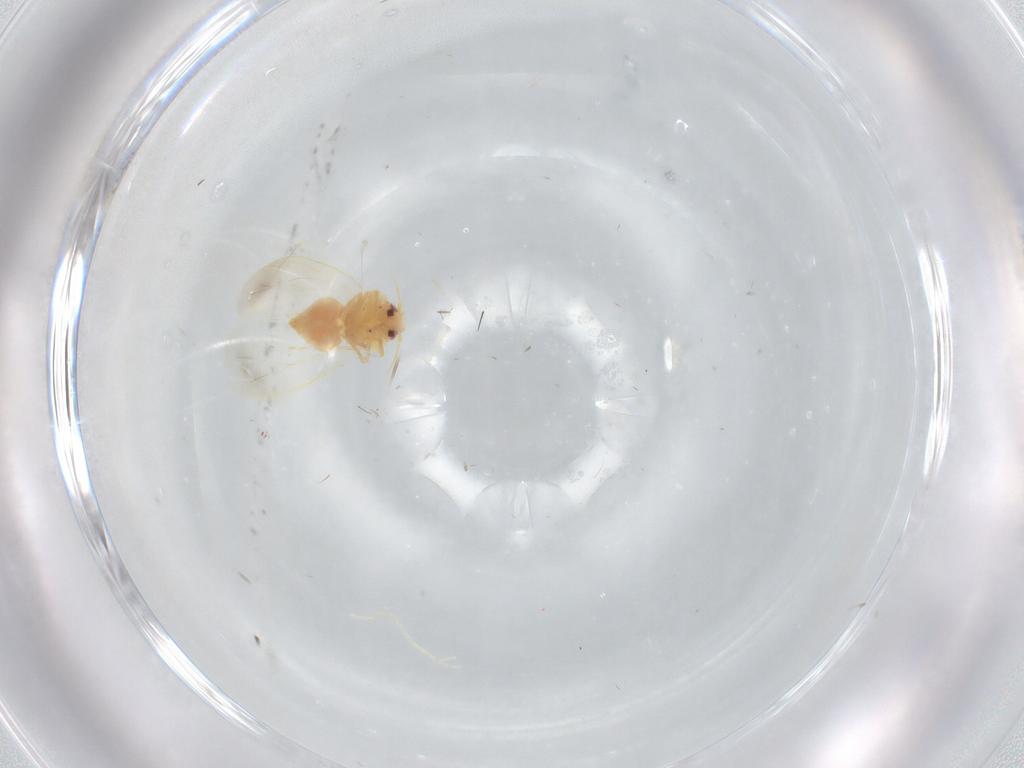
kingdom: Animalia
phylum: Arthropoda
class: Insecta
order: Hemiptera
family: Aleyrodidae
